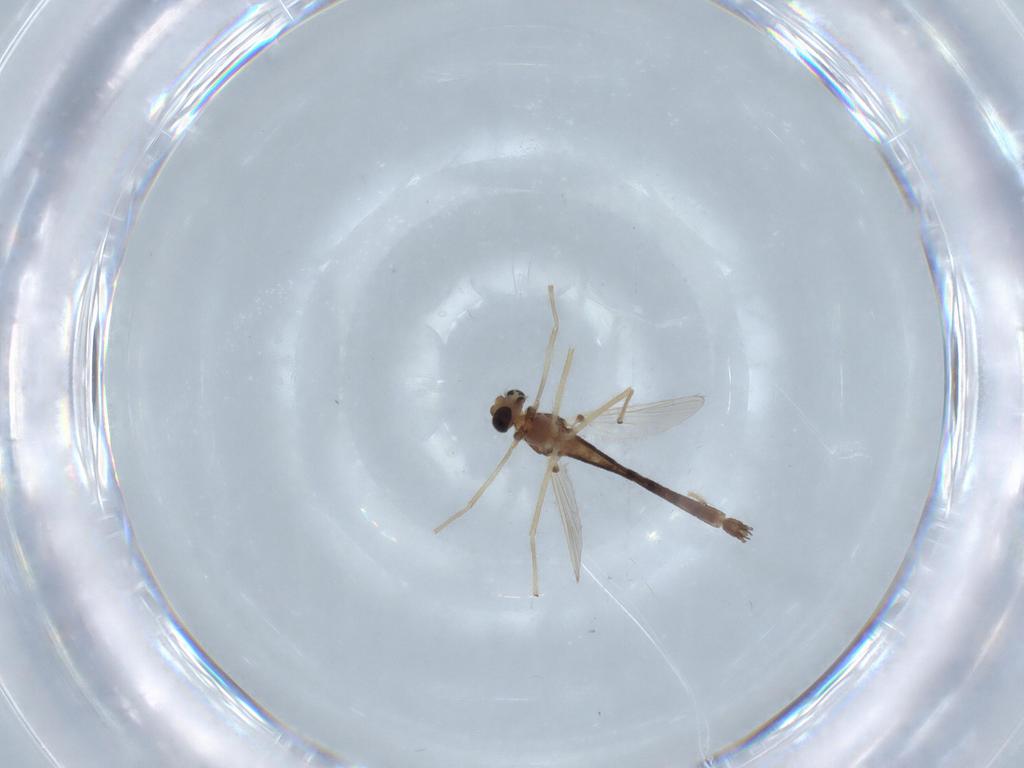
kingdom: Animalia
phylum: Arthropoda
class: Insecta
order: Diptera
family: Chironomidae
